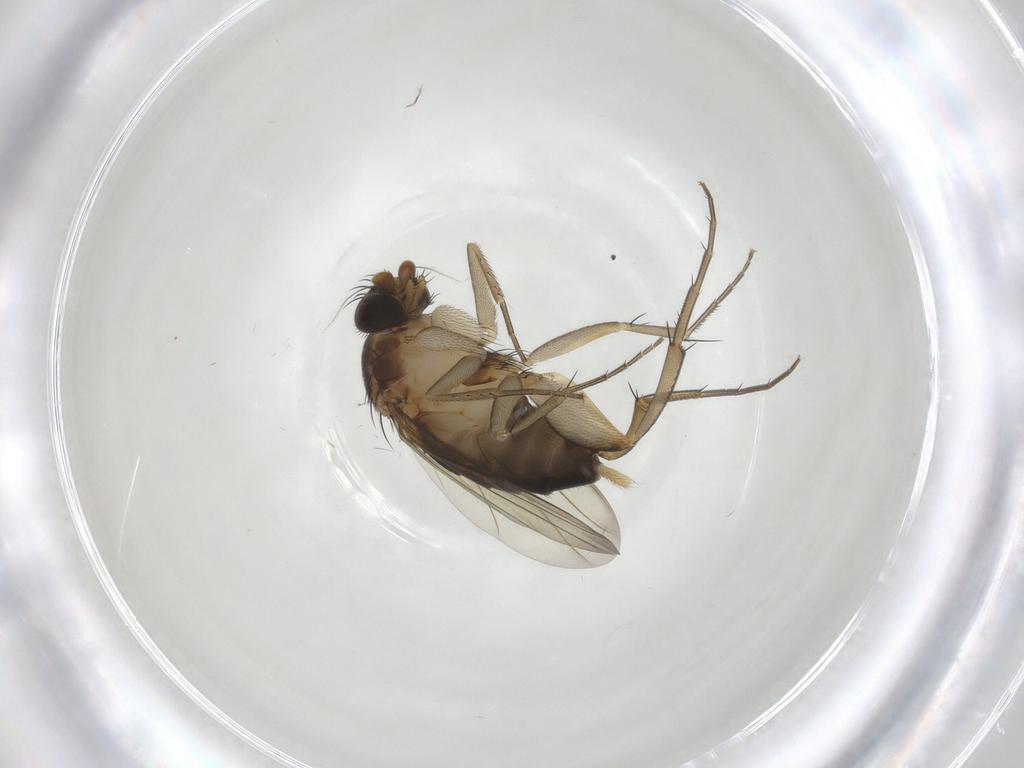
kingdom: Animalia
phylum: Arthropoda
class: Insecta
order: Diptera
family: Phoridae
